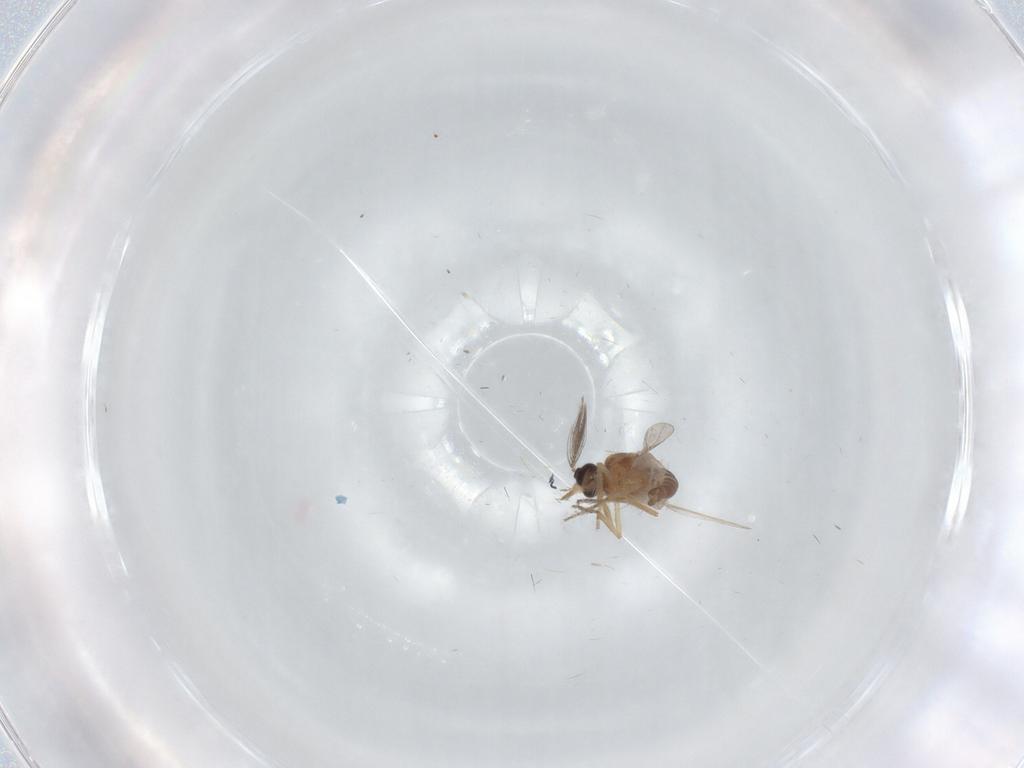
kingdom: Animalia
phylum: Arthropoda
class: Insecta
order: Diptera
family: Ceratopogonidae
